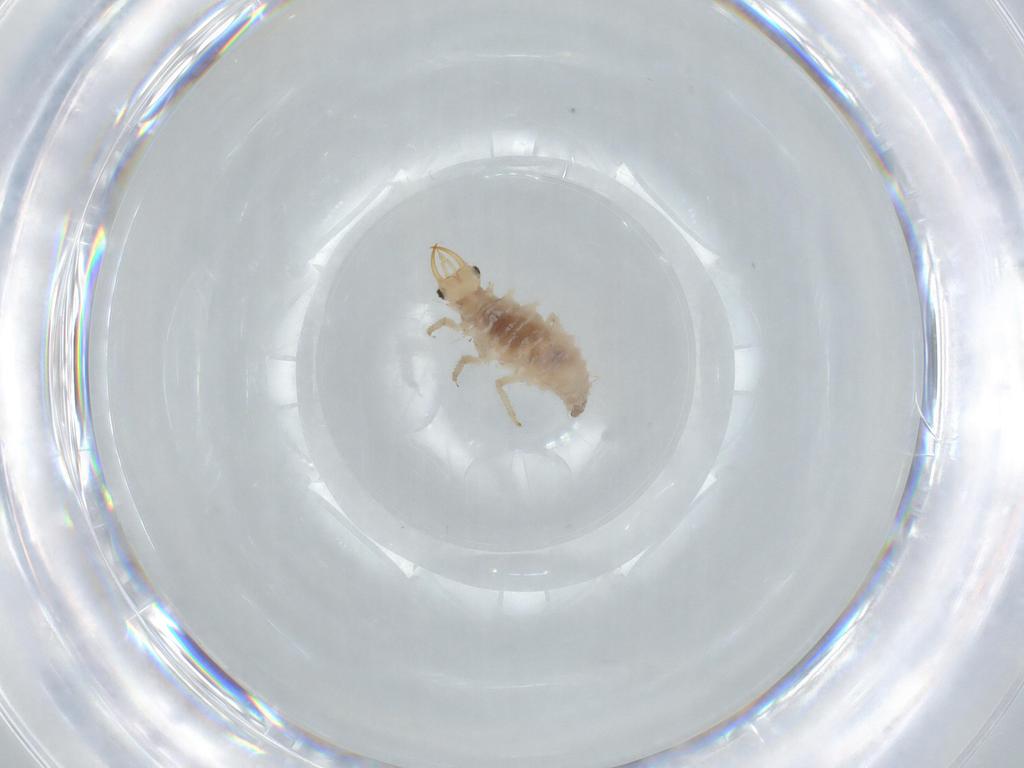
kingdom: Animalia
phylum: Arthropoda
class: Insecta
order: Neuroptera
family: Chrysopidae
